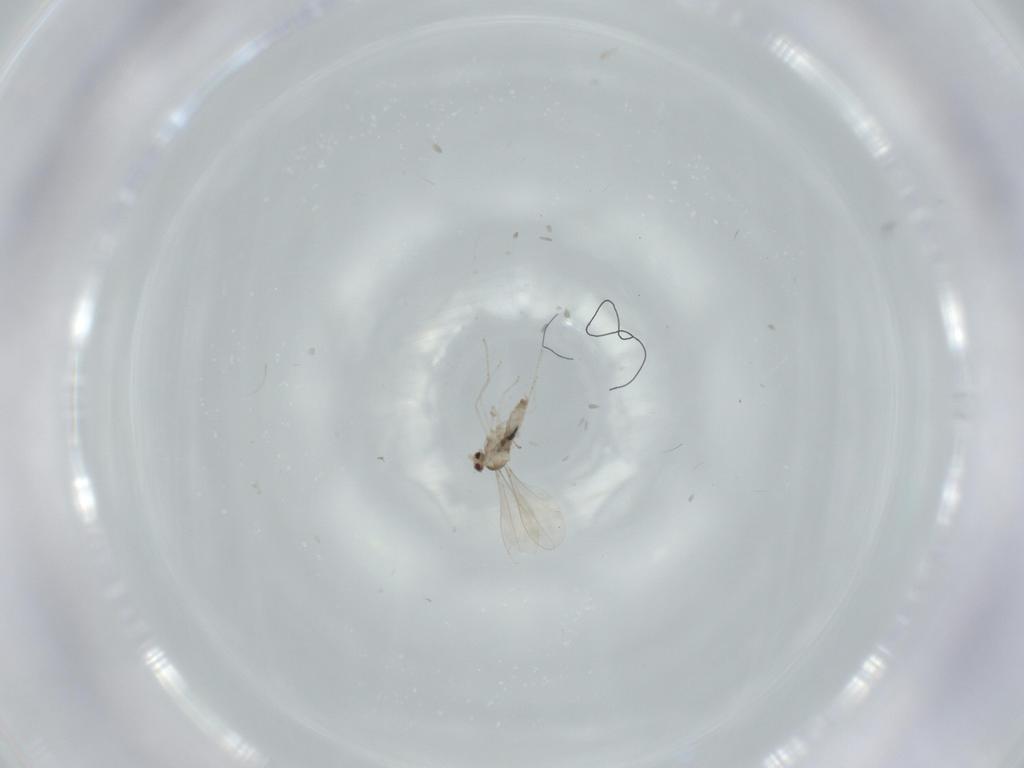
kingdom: Animalia
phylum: Arthropoda
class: Insecta
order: Diptera
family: Cecidomyiidae
